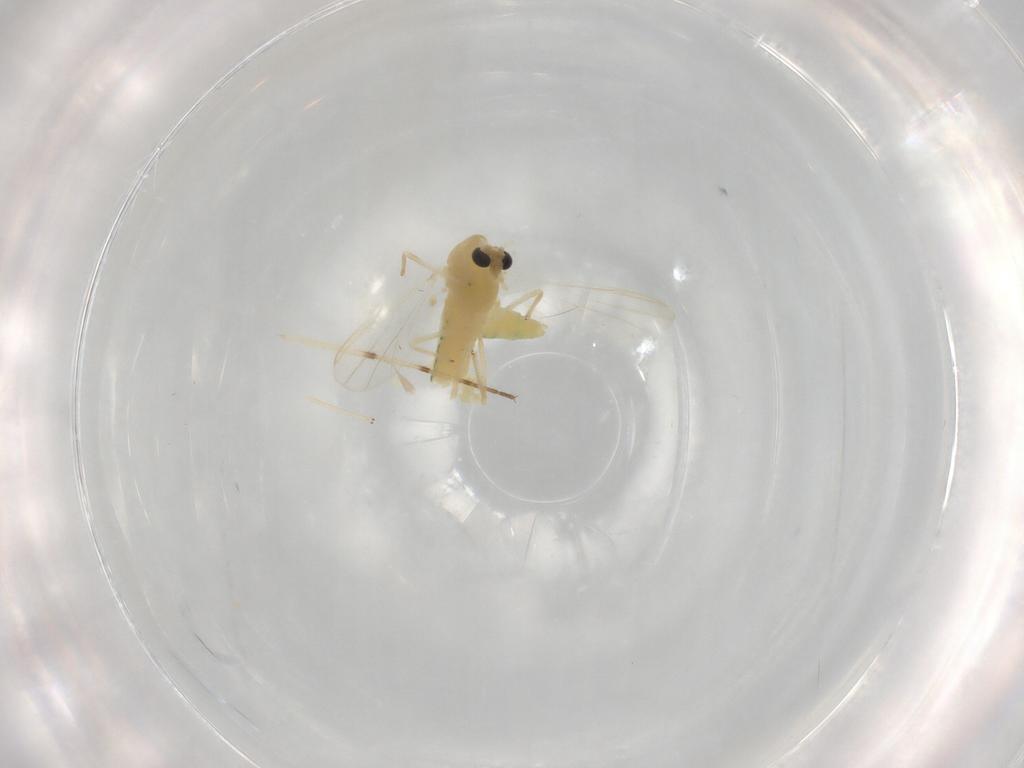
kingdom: Animalia
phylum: Arthropoda
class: Insecta
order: Diptera
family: Chironomidae
